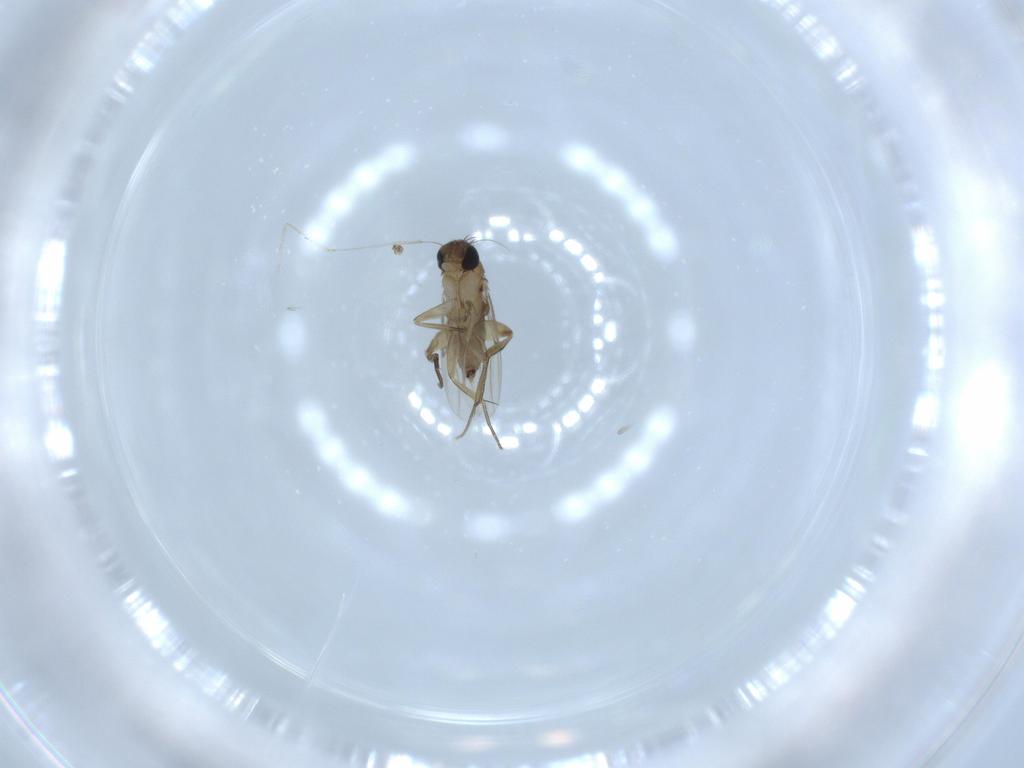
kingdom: Animalia
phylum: Arthropoda
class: Insecta
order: Diptera
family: Phoridae
